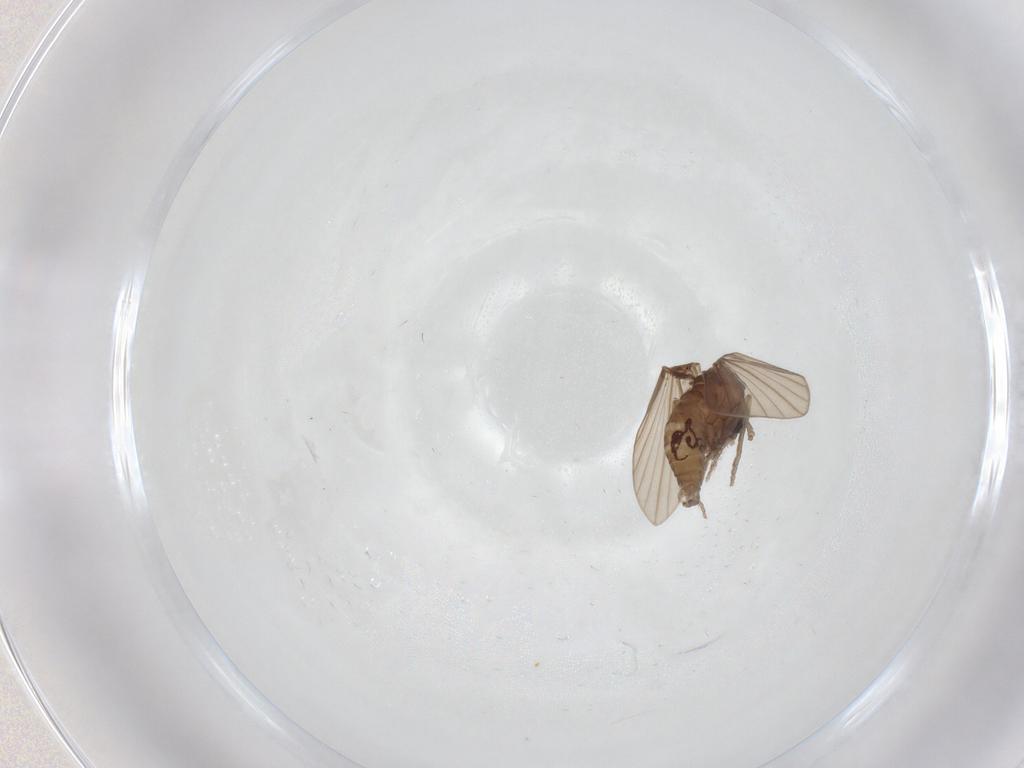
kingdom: Animalia
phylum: Arthropoda
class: Insecta
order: Diptera
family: Psychodidae
